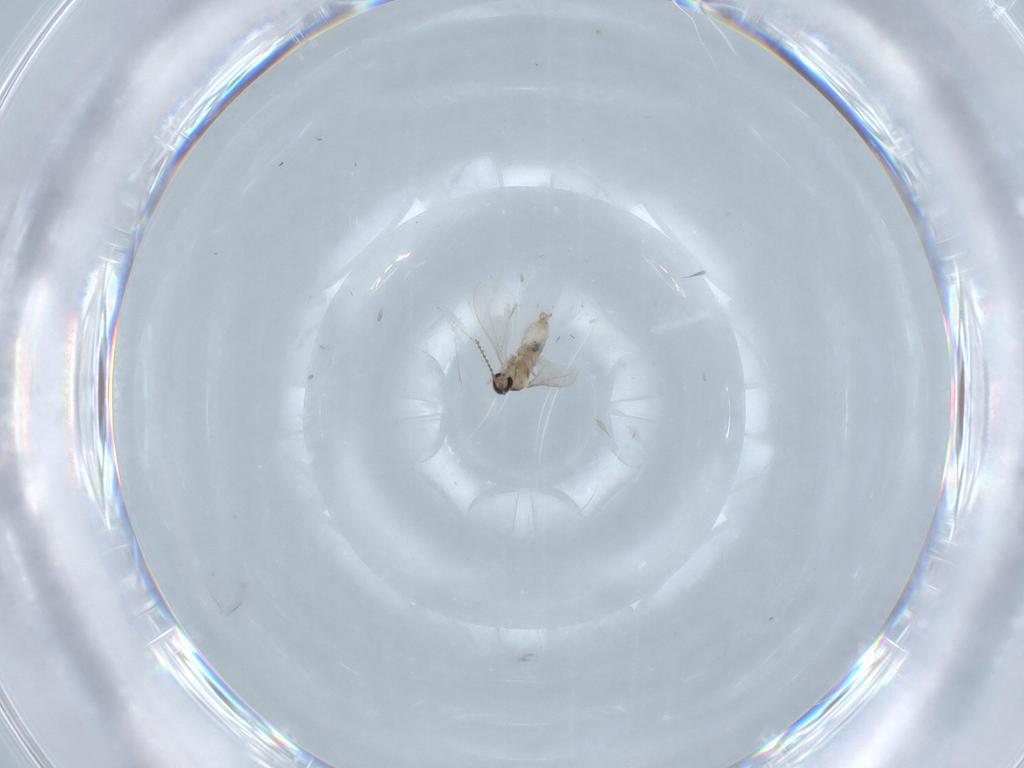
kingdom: Animalia
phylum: Arthropoda
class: Insecta
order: Diptera
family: Cecidomyiidae
